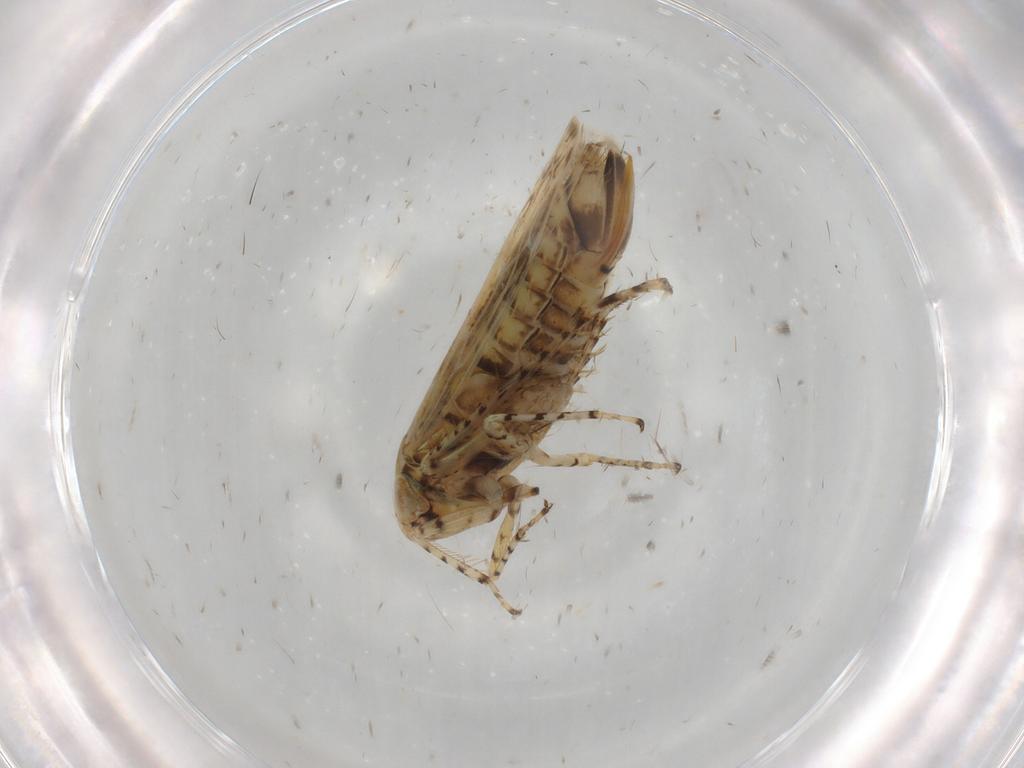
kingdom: Animalia
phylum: Arthropoda
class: Insecta
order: Hemiptera
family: Cicadellidae
